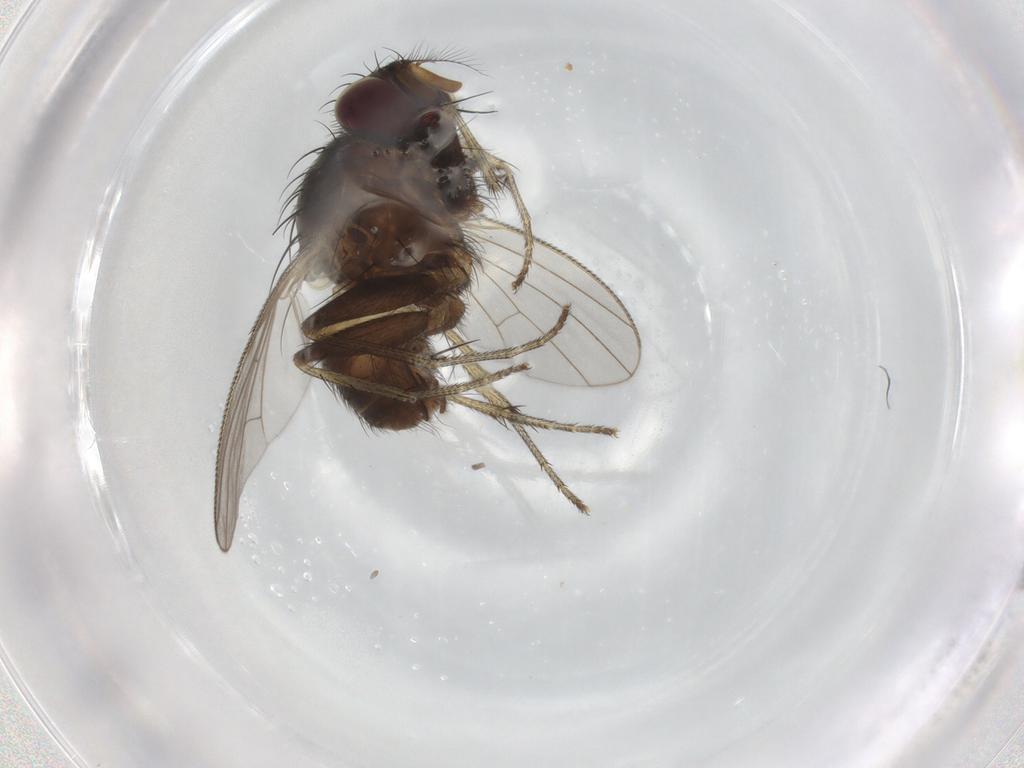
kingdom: Animalia
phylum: Arthropoda
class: Insecta
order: Diptera
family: Muscidae
